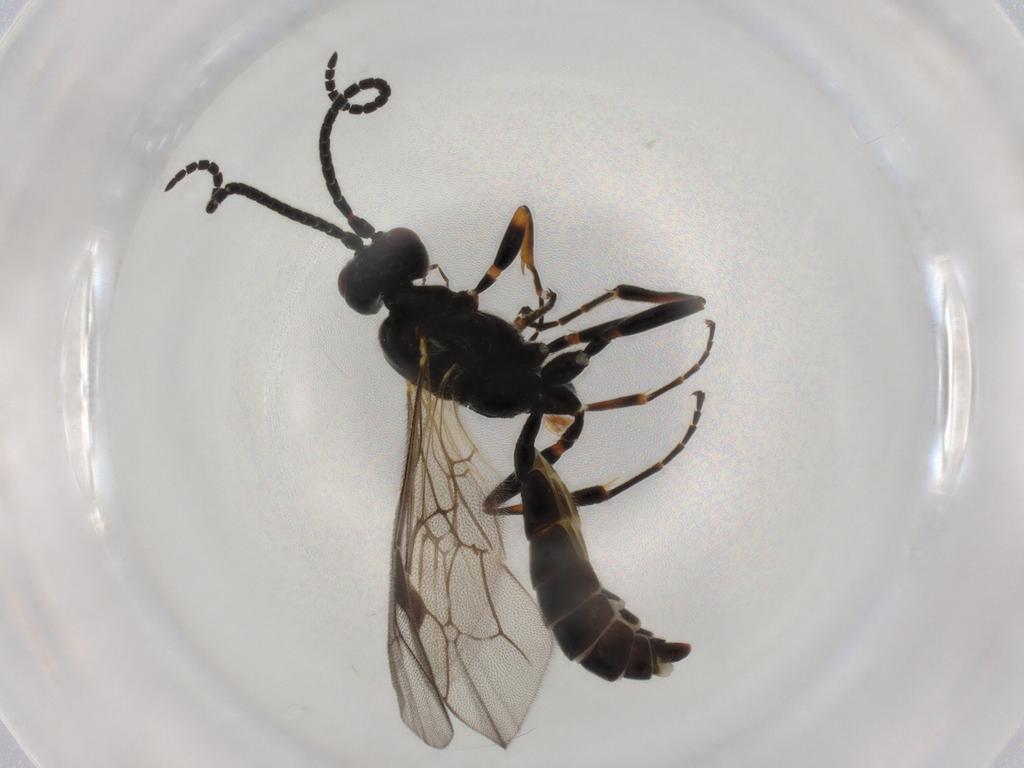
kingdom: Animalia
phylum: Arthropoda
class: Insecta
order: Hymenoptera
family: Ichneumonidae
